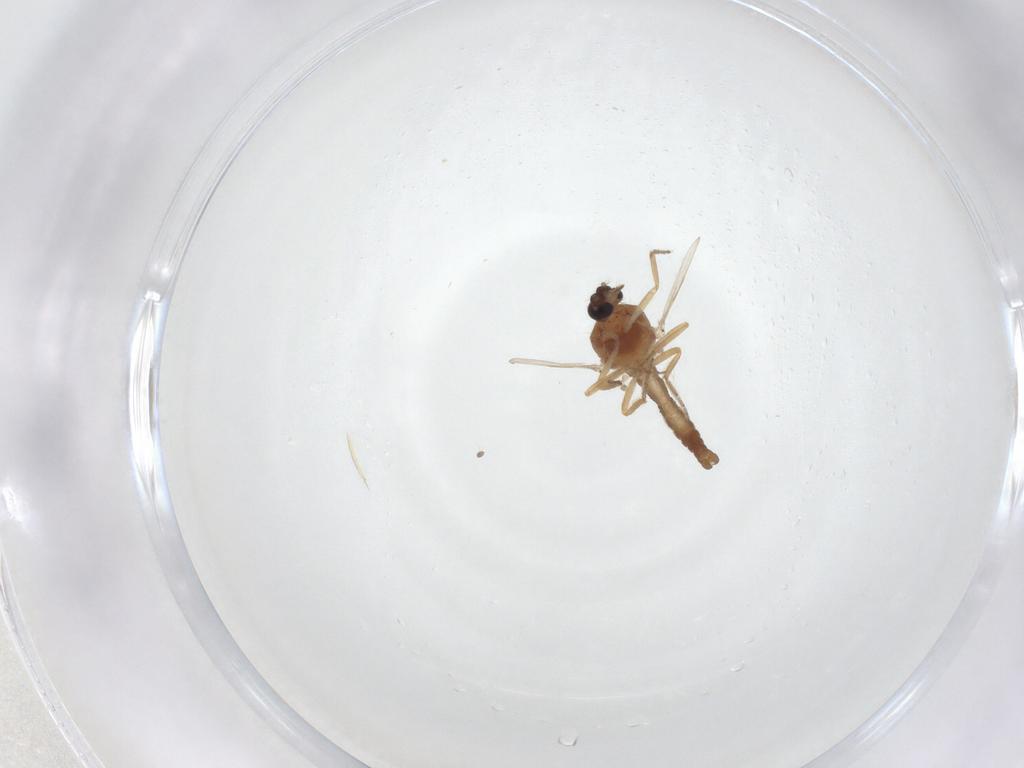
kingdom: Animalia
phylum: Arthropoda
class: Insecta
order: Diptera
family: Ceratopogonidae
